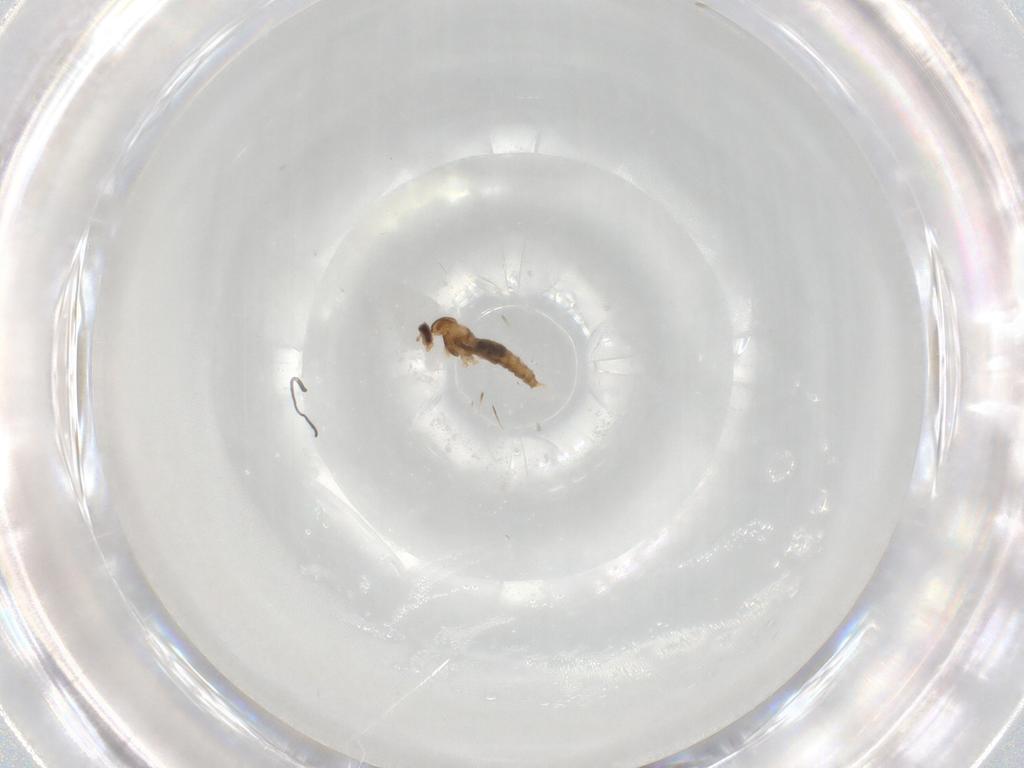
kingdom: Animalia
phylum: Arthropoda
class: Insecta
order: Diptera
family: Cecidomyiidae
